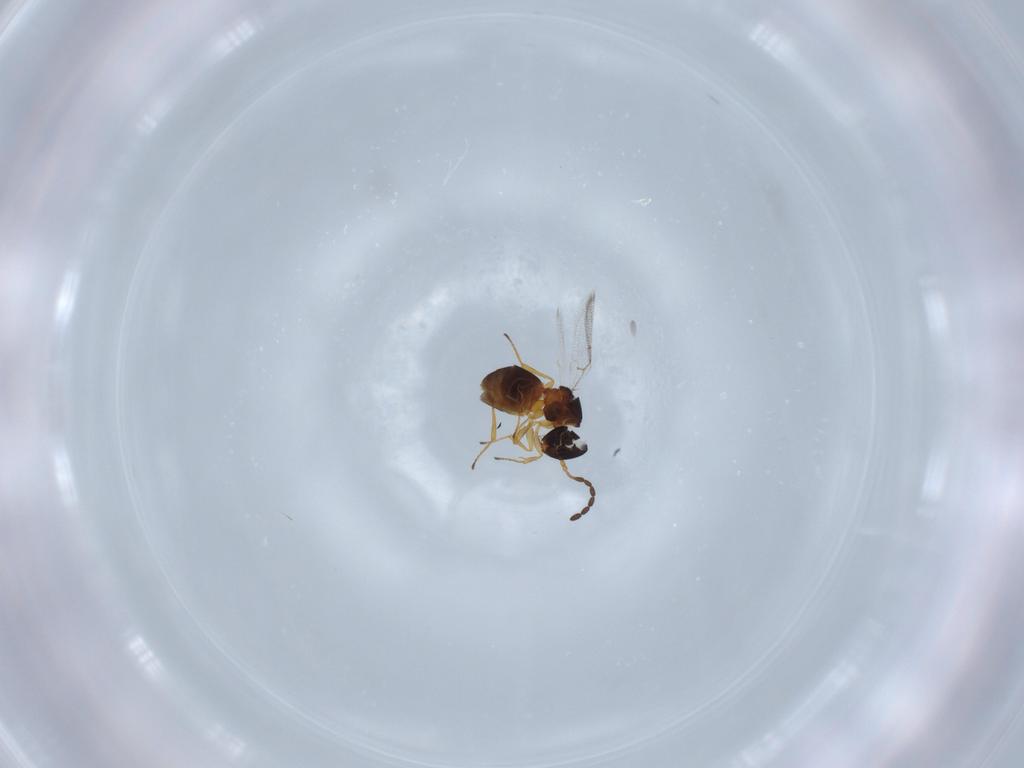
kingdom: Animalia
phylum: Arthropoda
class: Insecta
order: Hymenoptera
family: Figitidae
